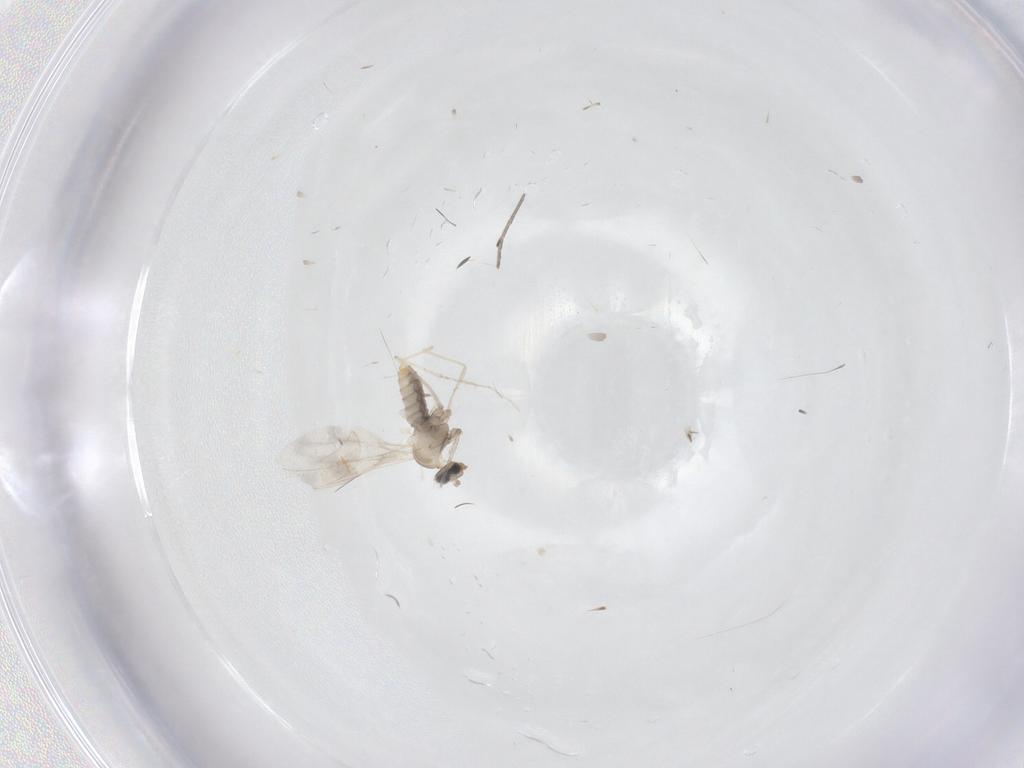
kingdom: Animalia
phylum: Arthropoda
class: Insecta
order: Diptera
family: Cecidomyiidae
